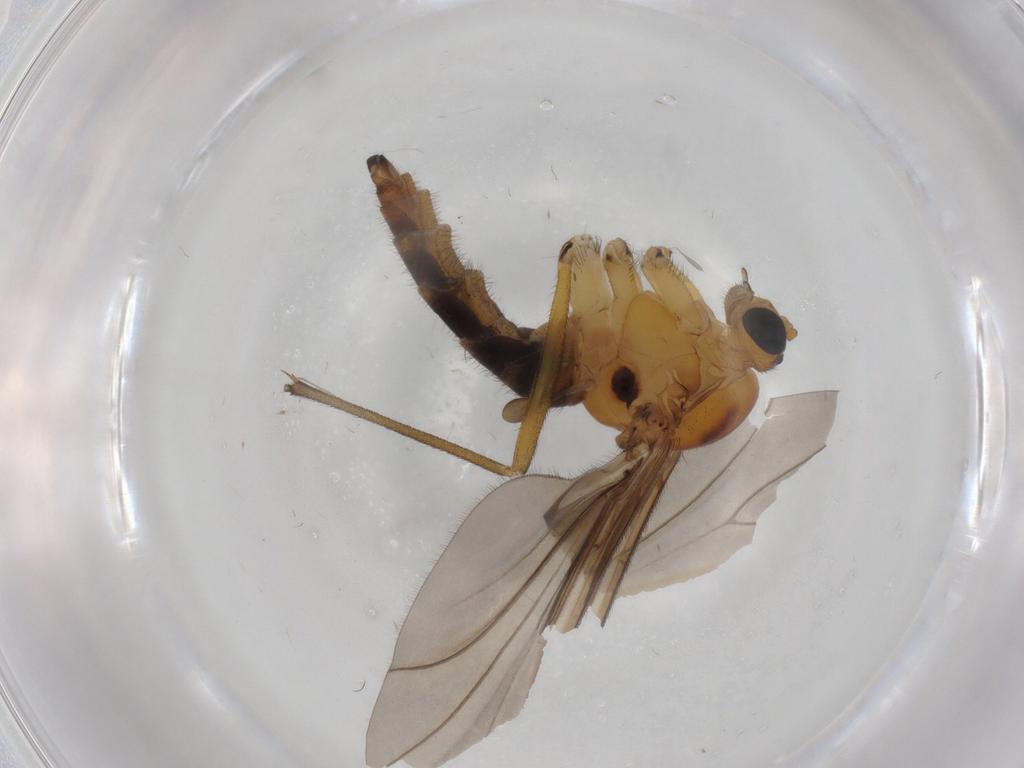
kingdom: Animalia
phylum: Arthropoda
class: Insecta
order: Diptera
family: Sciaridae
